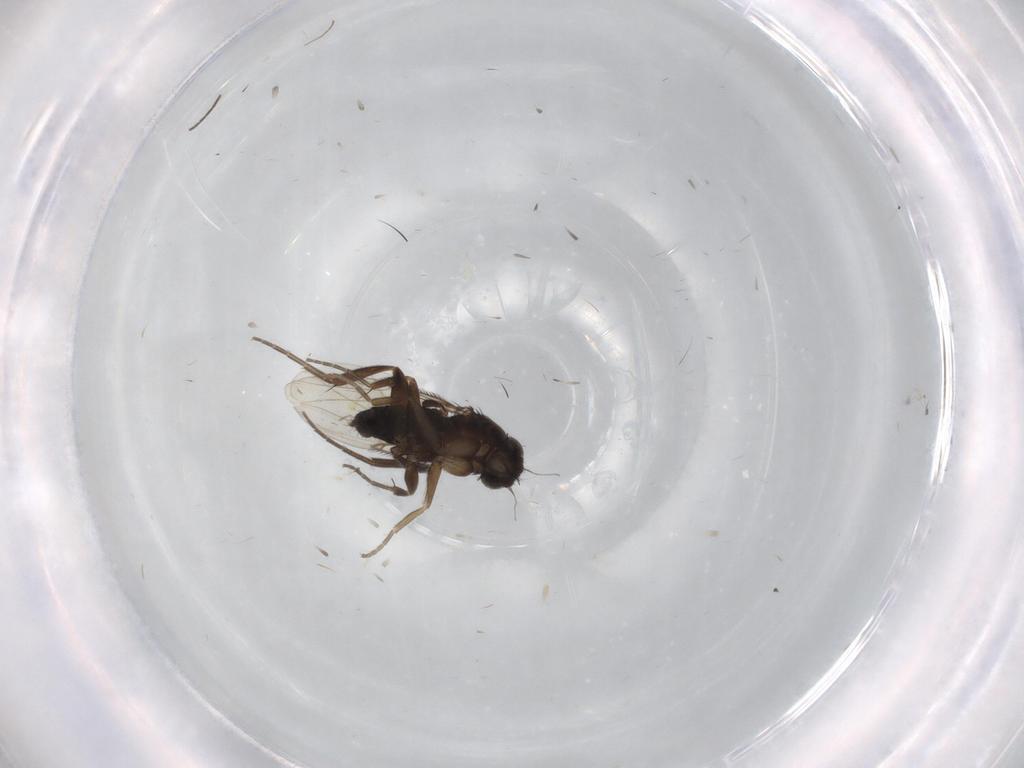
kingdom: Animalia
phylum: Arthropoda
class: Insecta
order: Diptera
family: Phoridae
